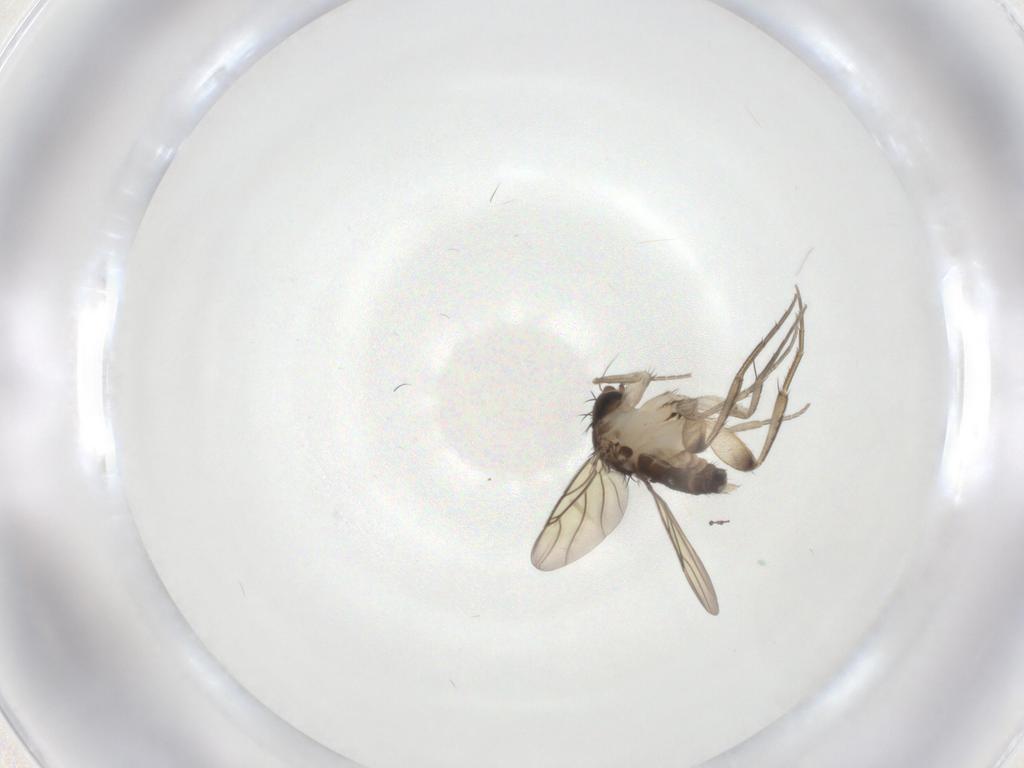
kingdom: Animalia
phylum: Arthropoda
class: Insecta
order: Diptera
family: Phoridae
